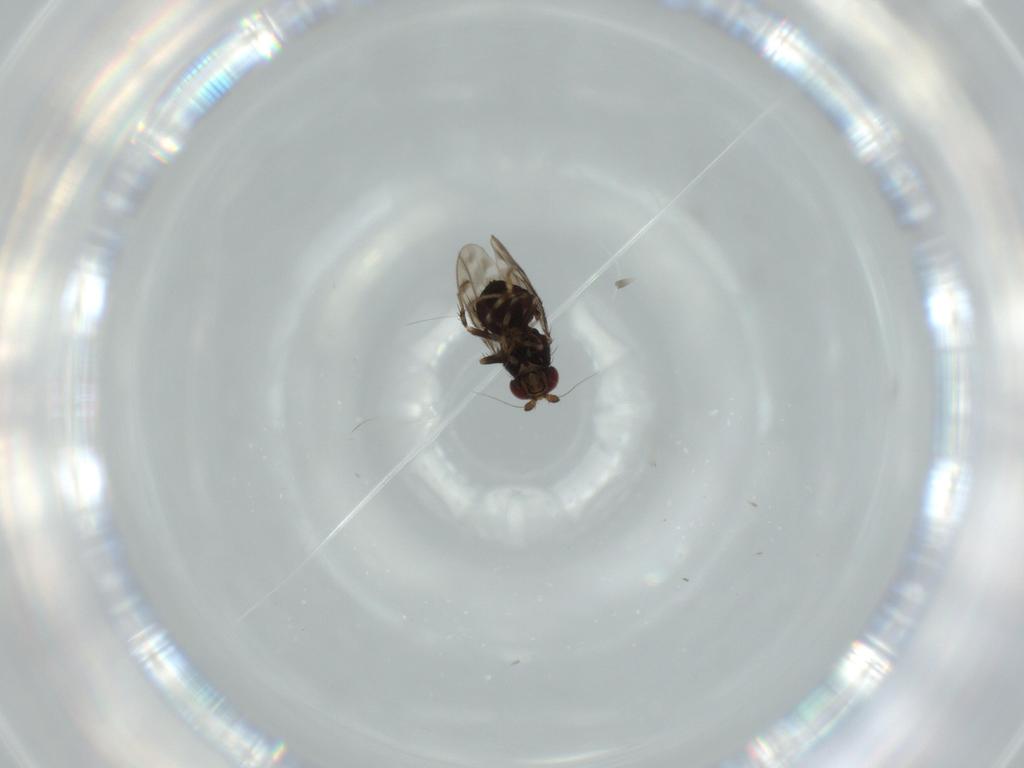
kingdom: Animalia
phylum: Arthropoda
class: Insecta
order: Diptera
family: Sphaeroceridae
